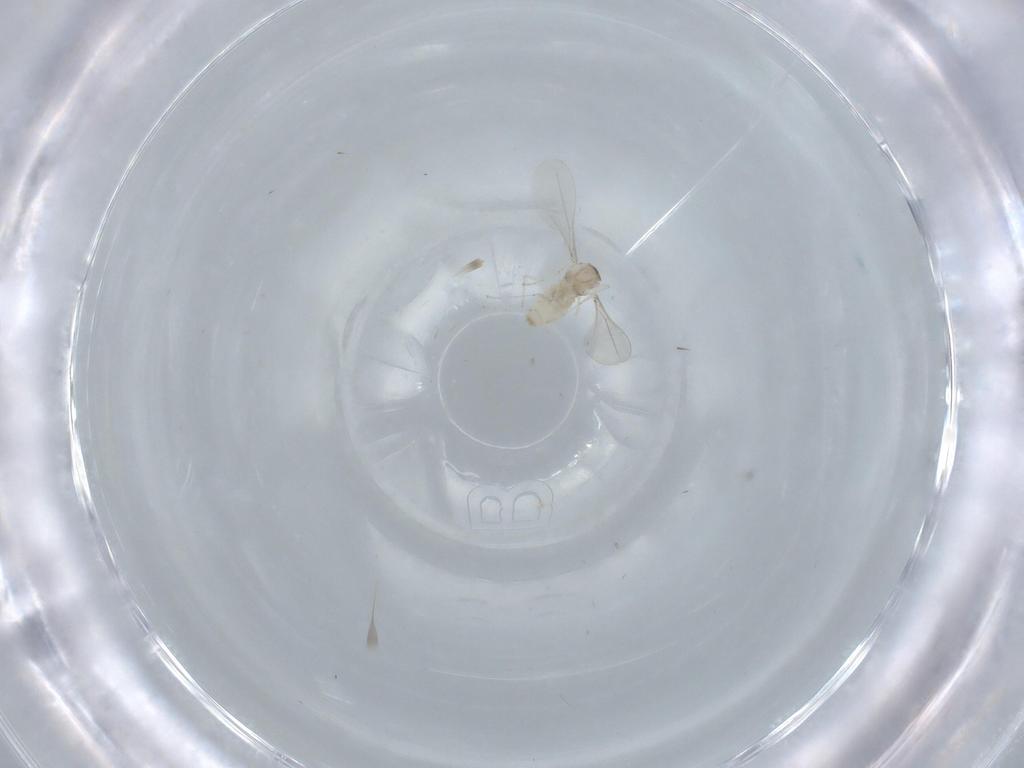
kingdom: Animalia
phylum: Arthropoda
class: Insecta
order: Diptera
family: Cecidomyiidae
